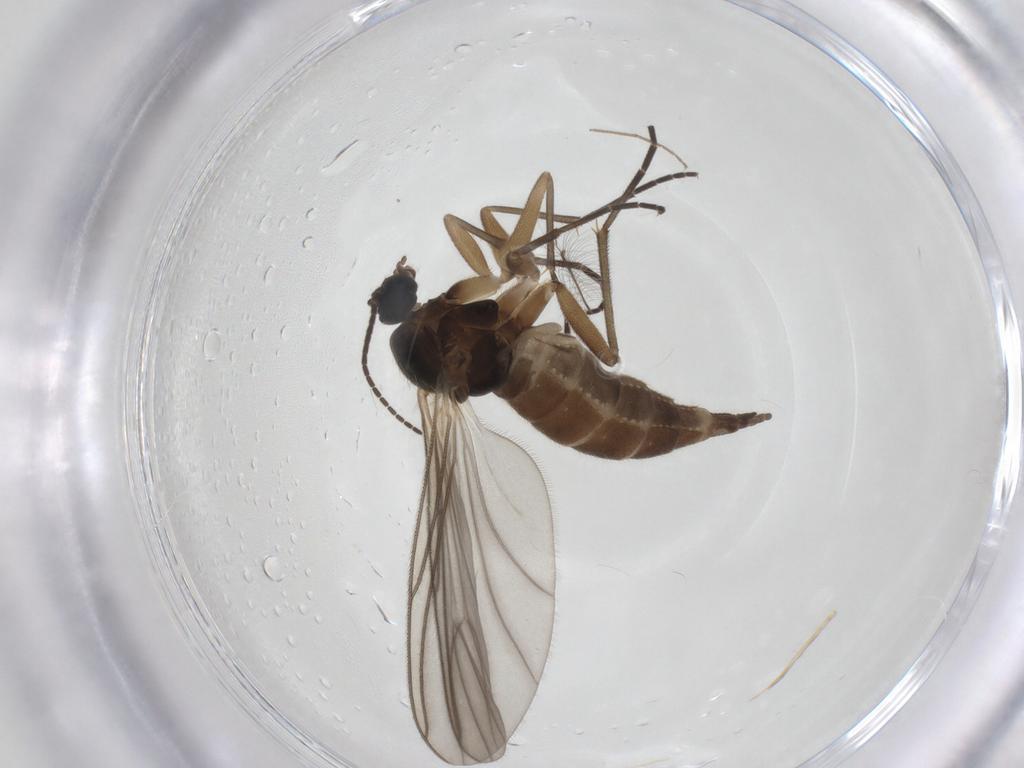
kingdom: Animalia
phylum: Arthropoda
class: Insecta
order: Diptera
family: Sciaridae
